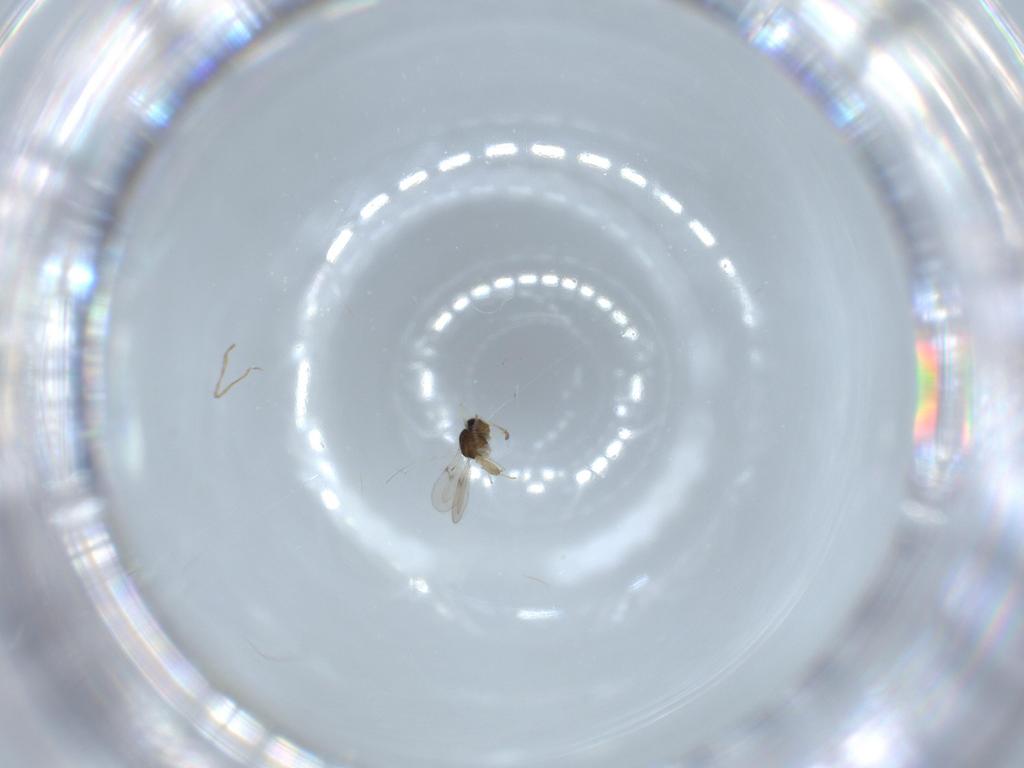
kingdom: Animalia
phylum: Arthropoda
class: Insecta
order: Hymenoptera
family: Scelionidae
